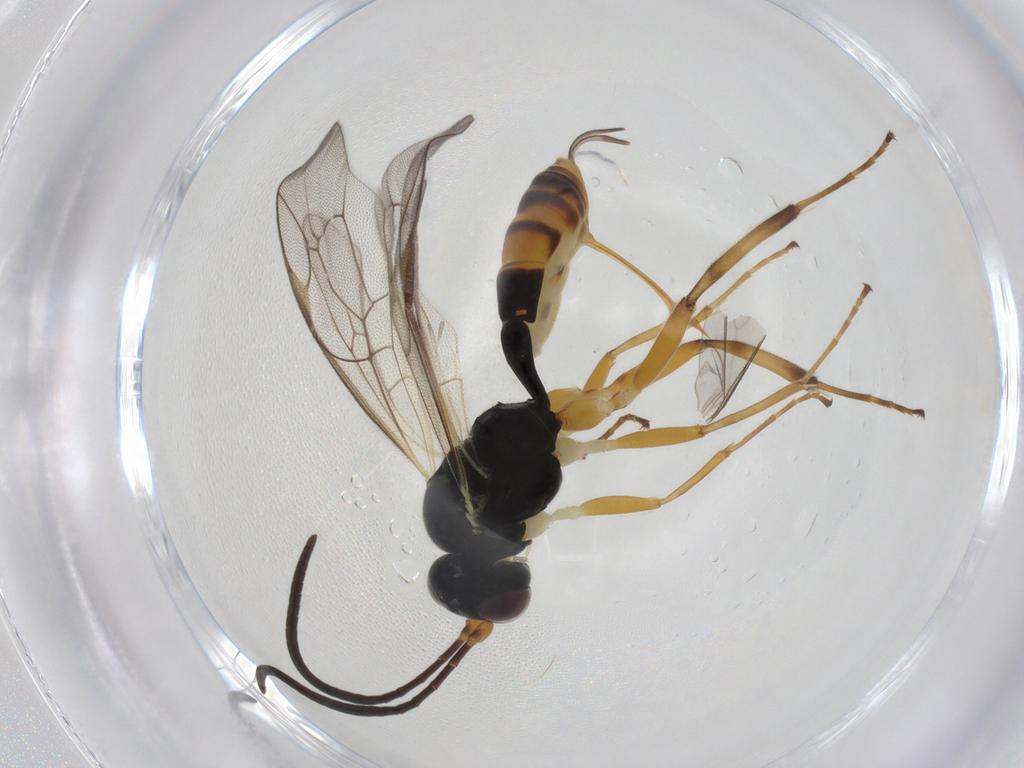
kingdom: Animalia
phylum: Arthropoda
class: Insecta
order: Hymenoptera
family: Ichneumonidae
